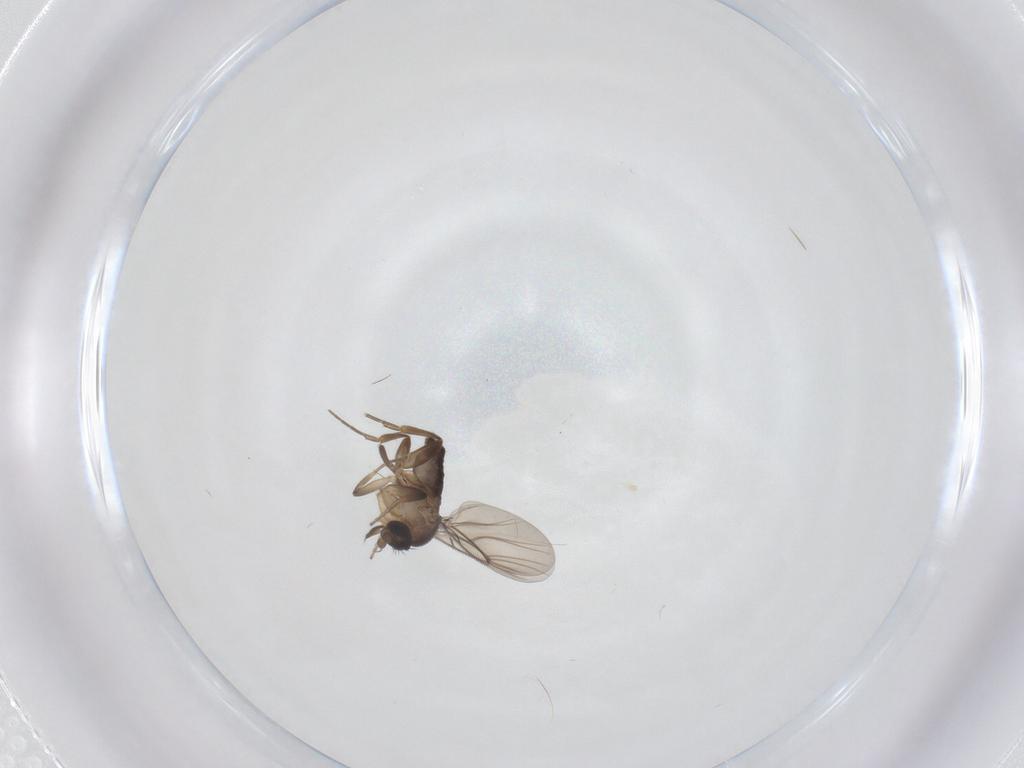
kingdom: Animalia
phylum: Arthropoda
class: Insecta
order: Diptera
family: Phoridae
